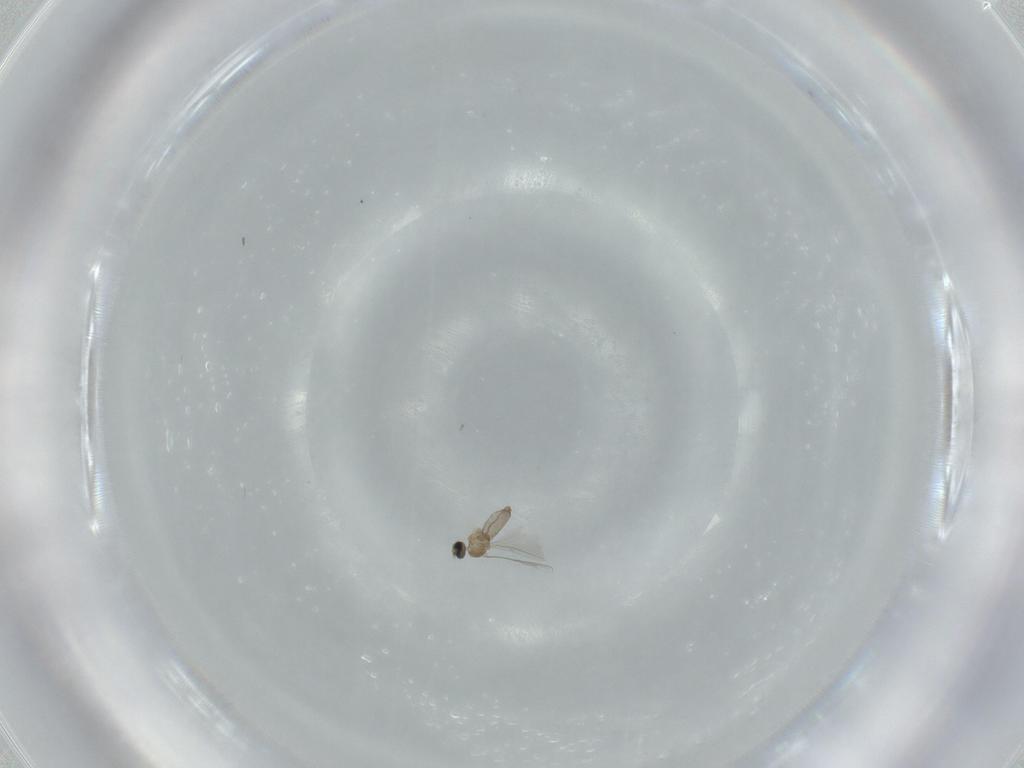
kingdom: Animalia
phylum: Arthropoda
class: Insecta
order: Diptera
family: Cecidomyiidae
